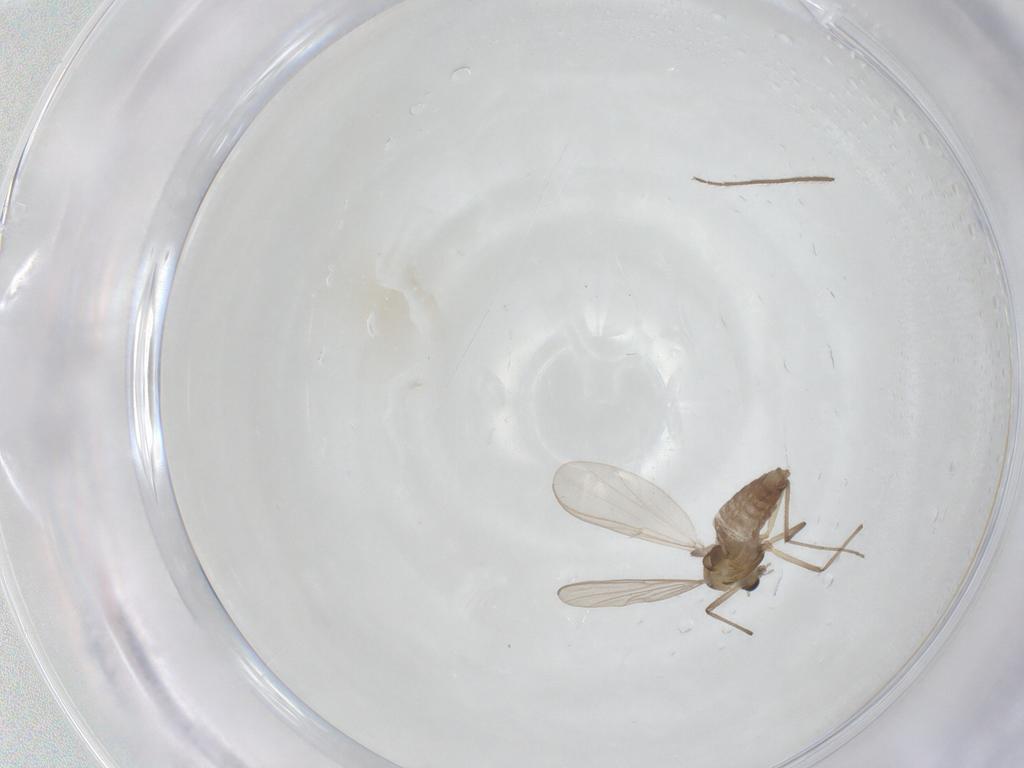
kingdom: Animalia
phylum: Arthropoda
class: Insecta
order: Diptera
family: Chironomidae
